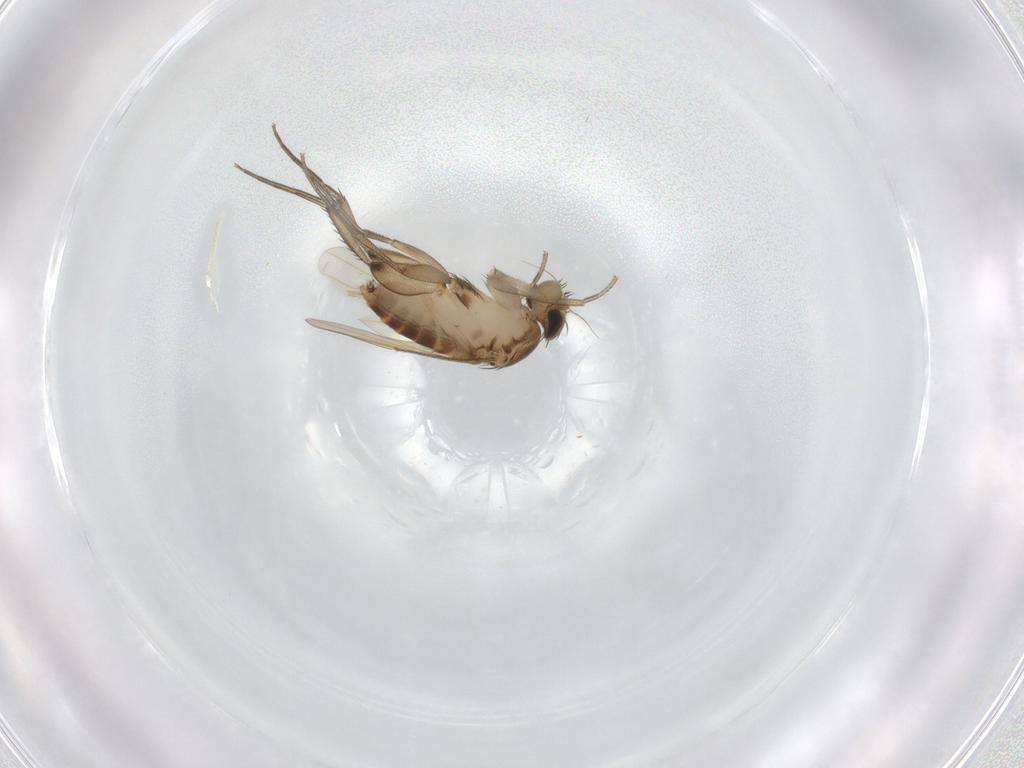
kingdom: Animalia
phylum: Arthropoda
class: Insecta
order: Diptera
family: Phoridae
